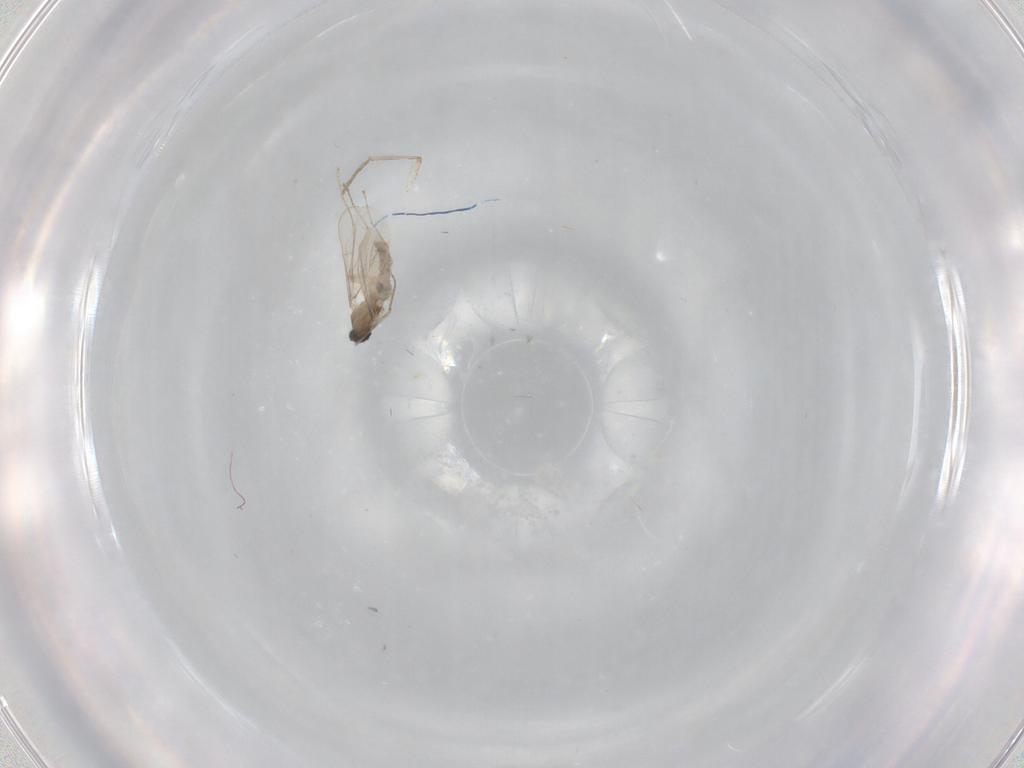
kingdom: Animalia
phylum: Arthropoda
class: Insecta
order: Diptera
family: Cecidomyiidae
